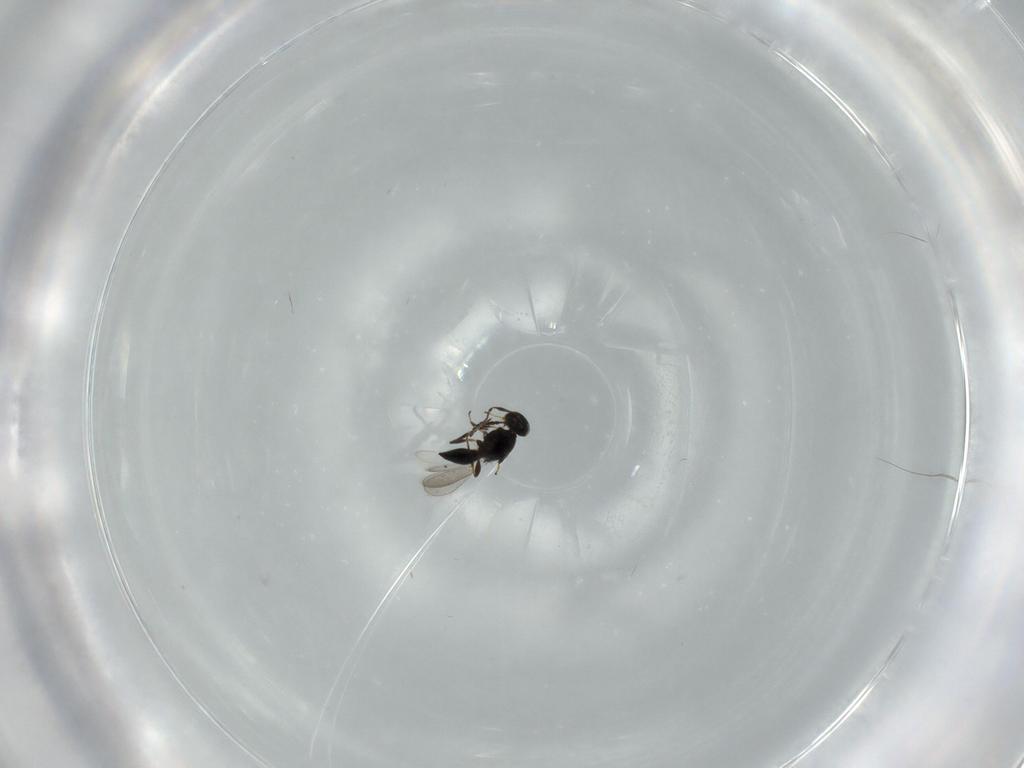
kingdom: Animalia
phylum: Arthropoda
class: Insecta
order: Hymenoptera
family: Platygastridae
